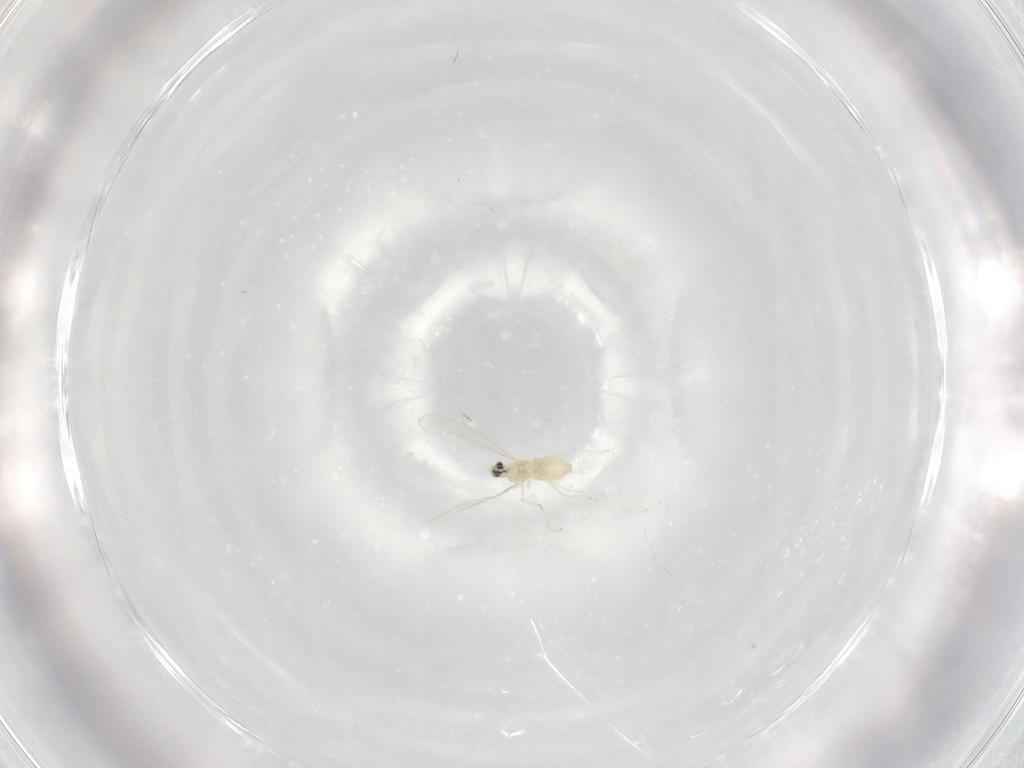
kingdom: Animalia
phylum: Arthropoda
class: Insecta
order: Diptera
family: Cecidomyiidae
